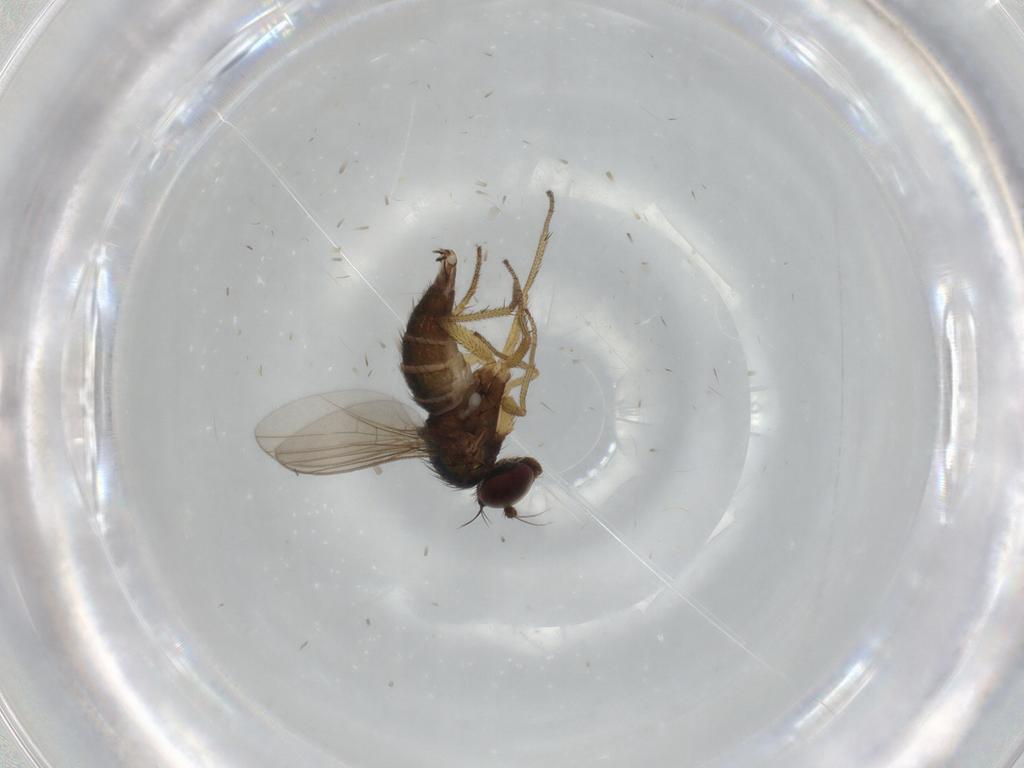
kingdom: Animalia
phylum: Arthropoda
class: Insecta
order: Diptera
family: Dolichopodidae
